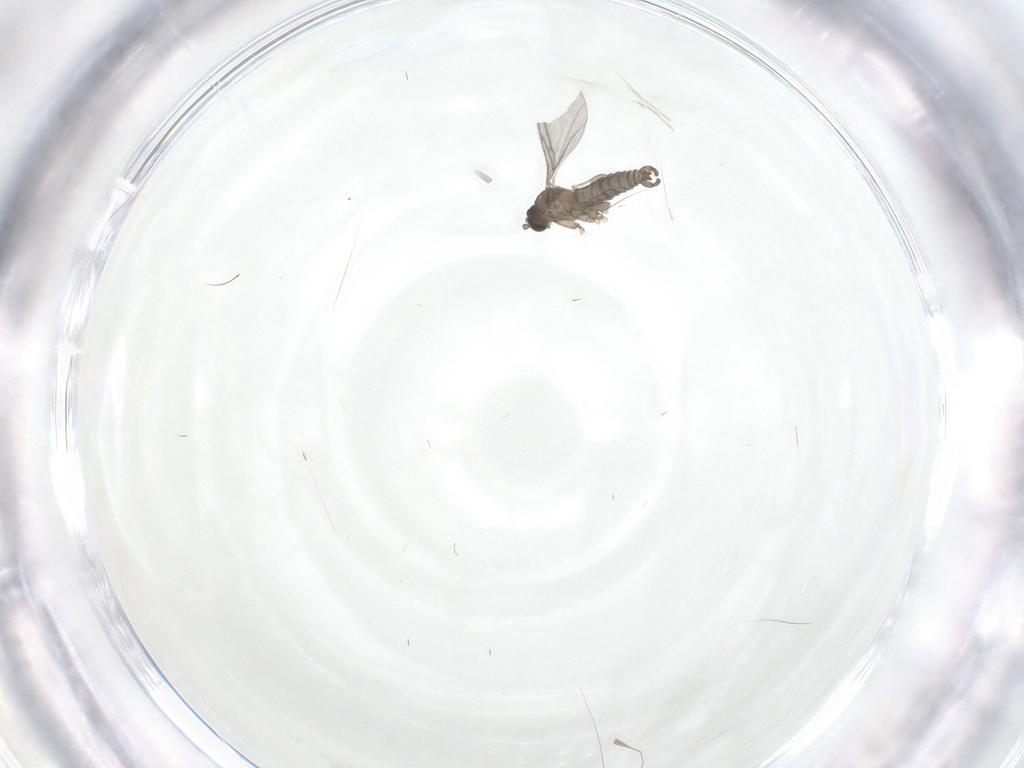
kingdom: Animalia
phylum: Arthropoda
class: Insecta
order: Diptera
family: Sciaridae
